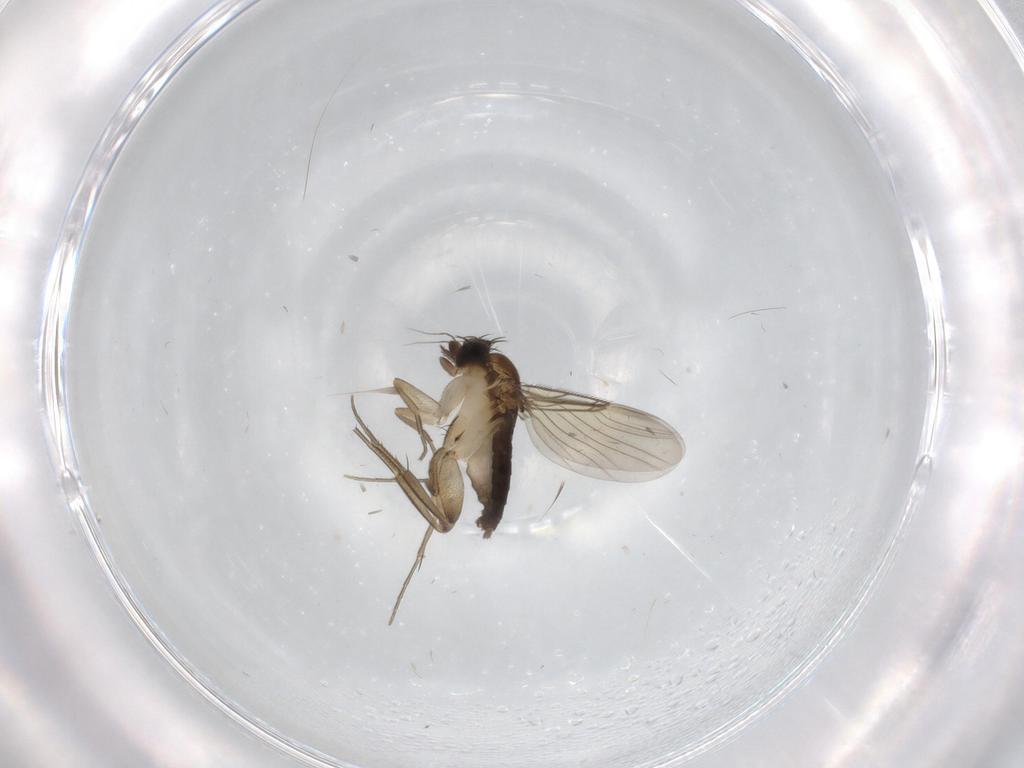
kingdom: Animalia
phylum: Arthropoda
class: Insecta
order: Diptera
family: Phoridae
